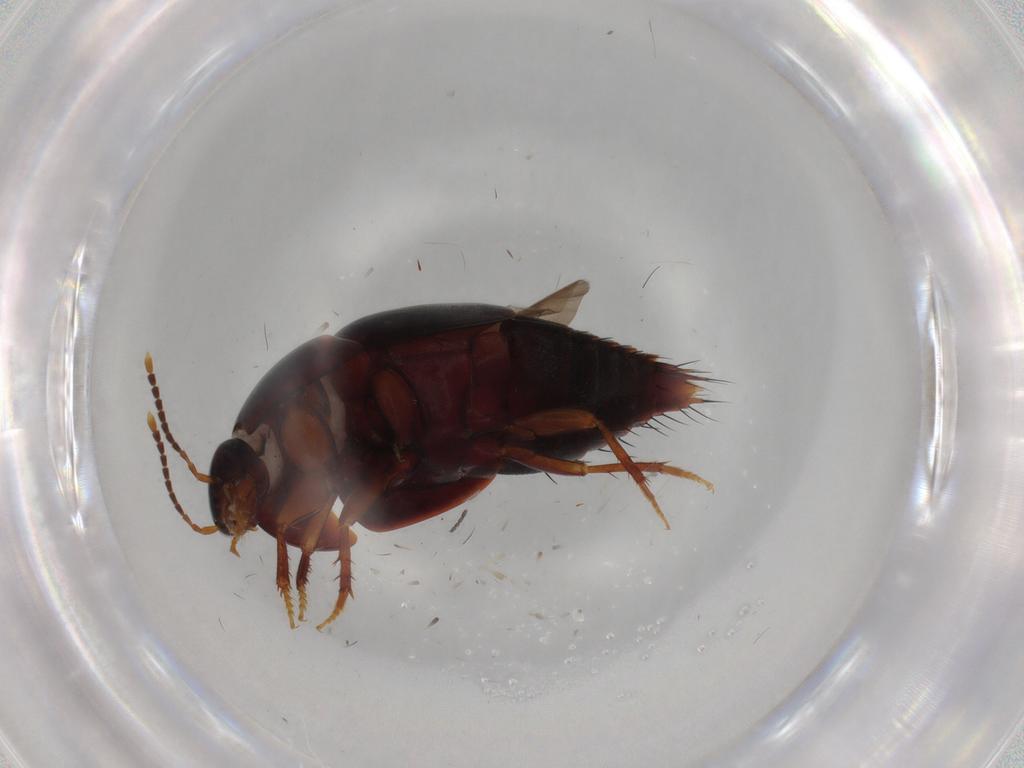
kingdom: Animalia
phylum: Arthropoda
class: Insecta
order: Coleoptera
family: Staphylinidae
